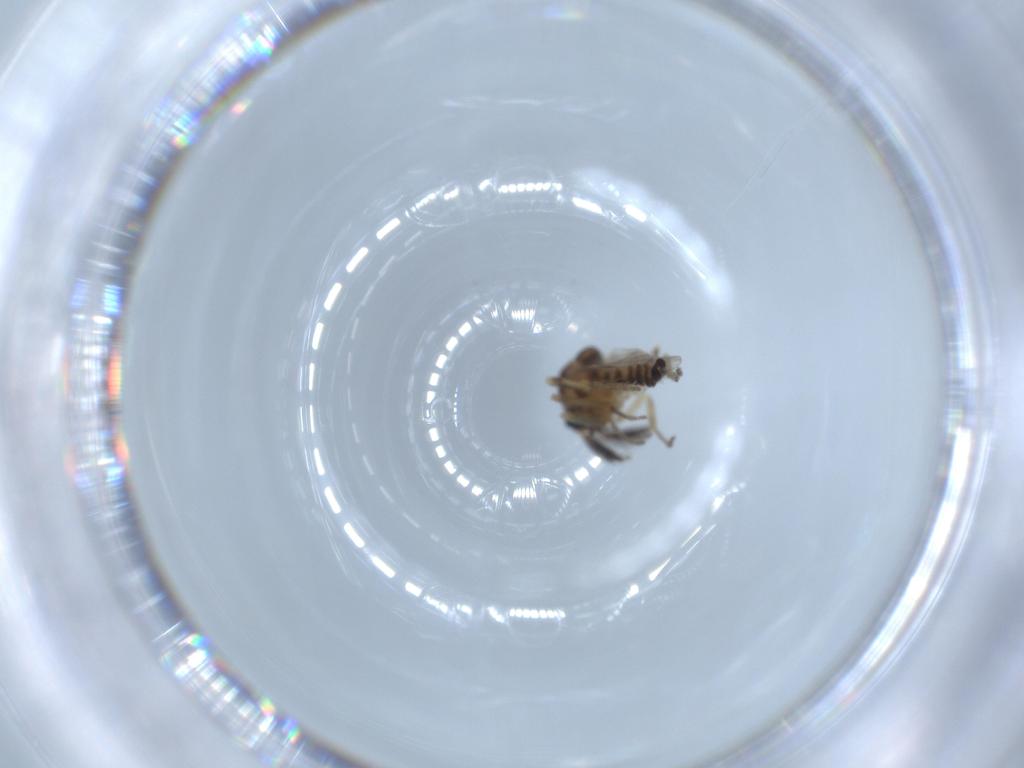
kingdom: Animalia
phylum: Arthropoda
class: Insecta
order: Diptera
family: Ceratopogonidae
